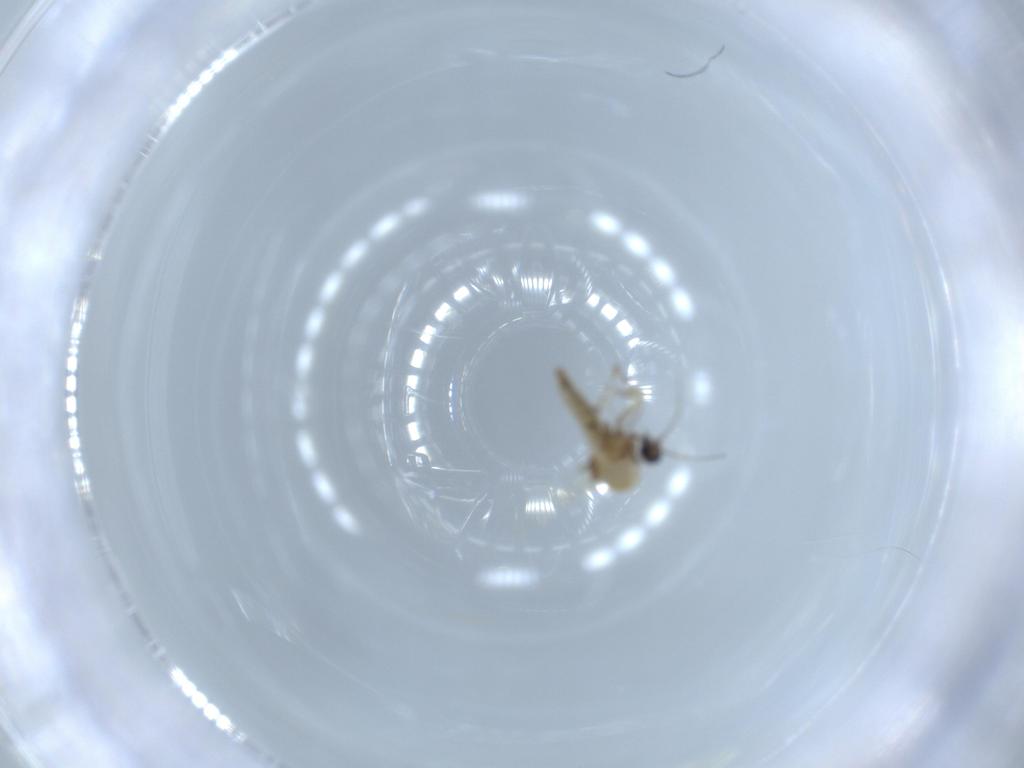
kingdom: Animalia
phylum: Arthropoda
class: Insecta
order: Diptera
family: Ceratopogonidae
